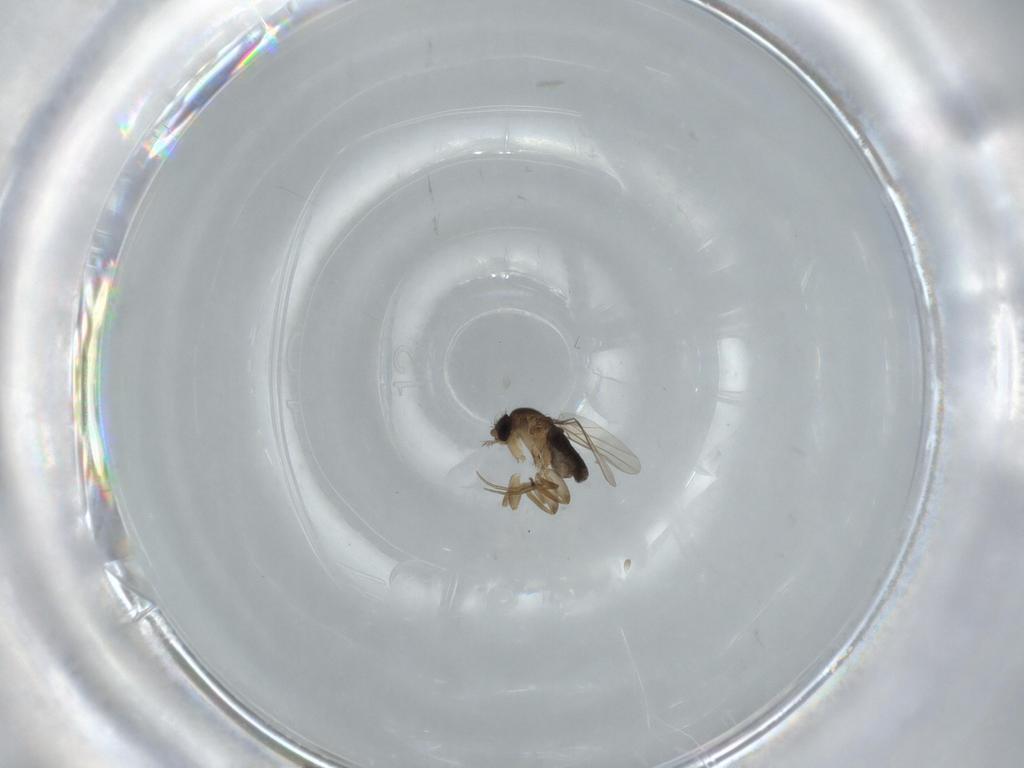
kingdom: Animalia
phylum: Arthropoda
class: Insecta
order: Diptera
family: Phoridae
